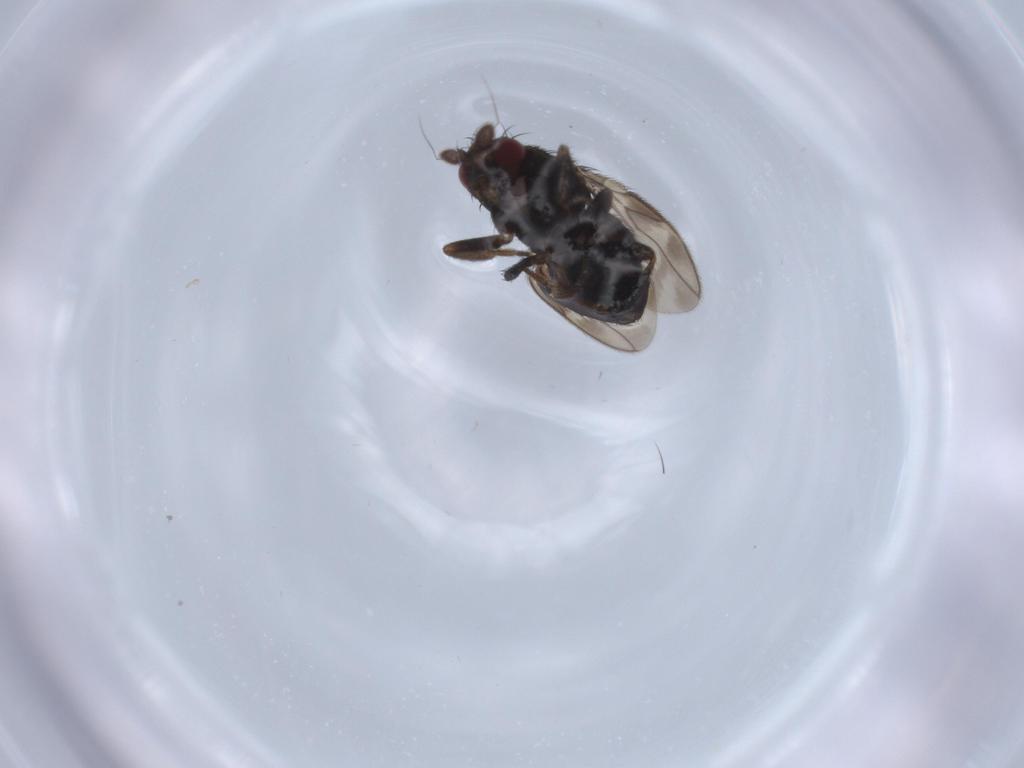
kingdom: Animalia
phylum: Arthropoda
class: Insecta
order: Diptera
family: Sphaeroceridae
